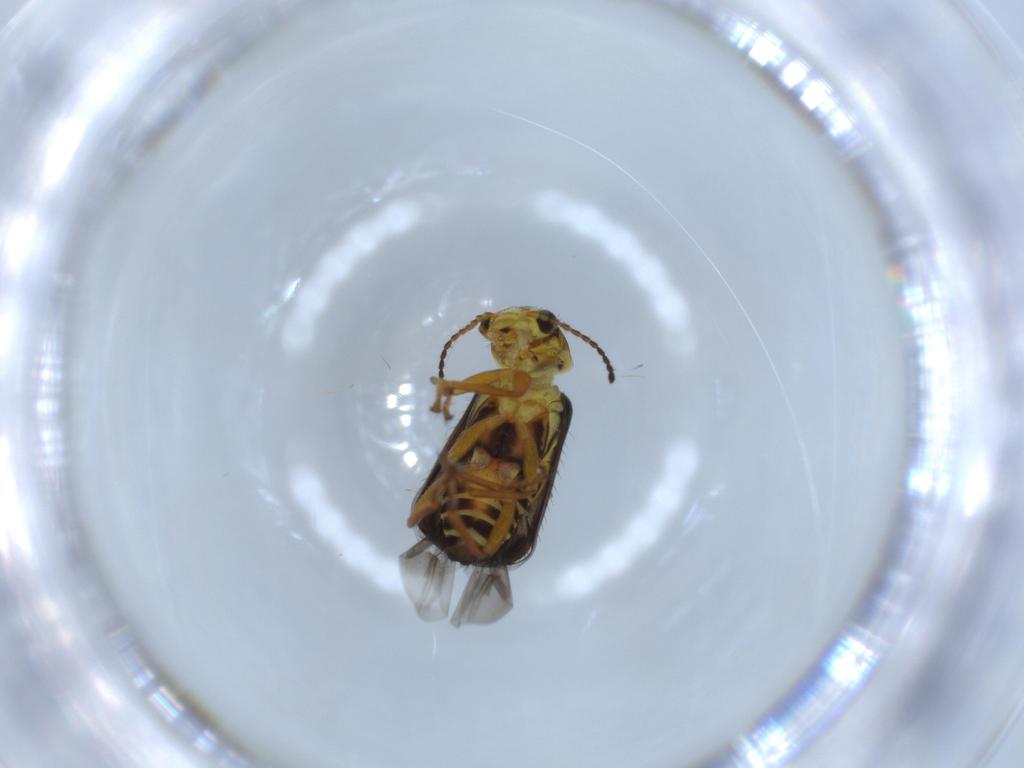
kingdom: Animalia
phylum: Arthropoda
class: Insecta
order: Coleoptera
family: Melyridae
